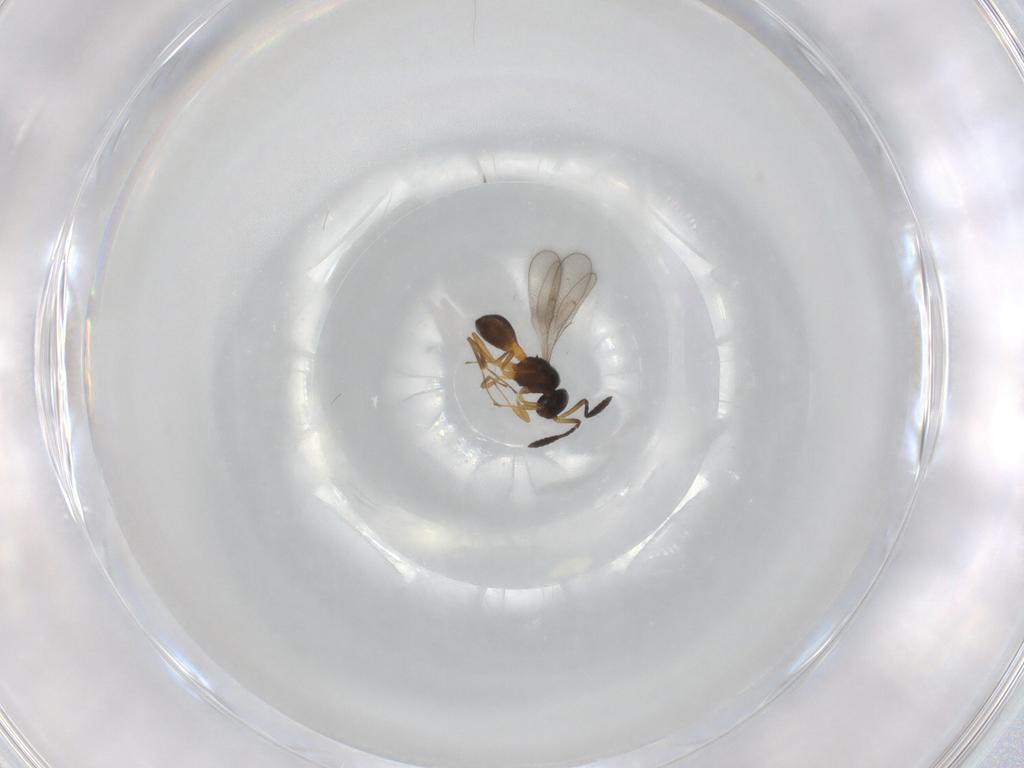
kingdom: Animalia
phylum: Arthropoda
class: Insecta
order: Hymenoptera
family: Scelionidae
